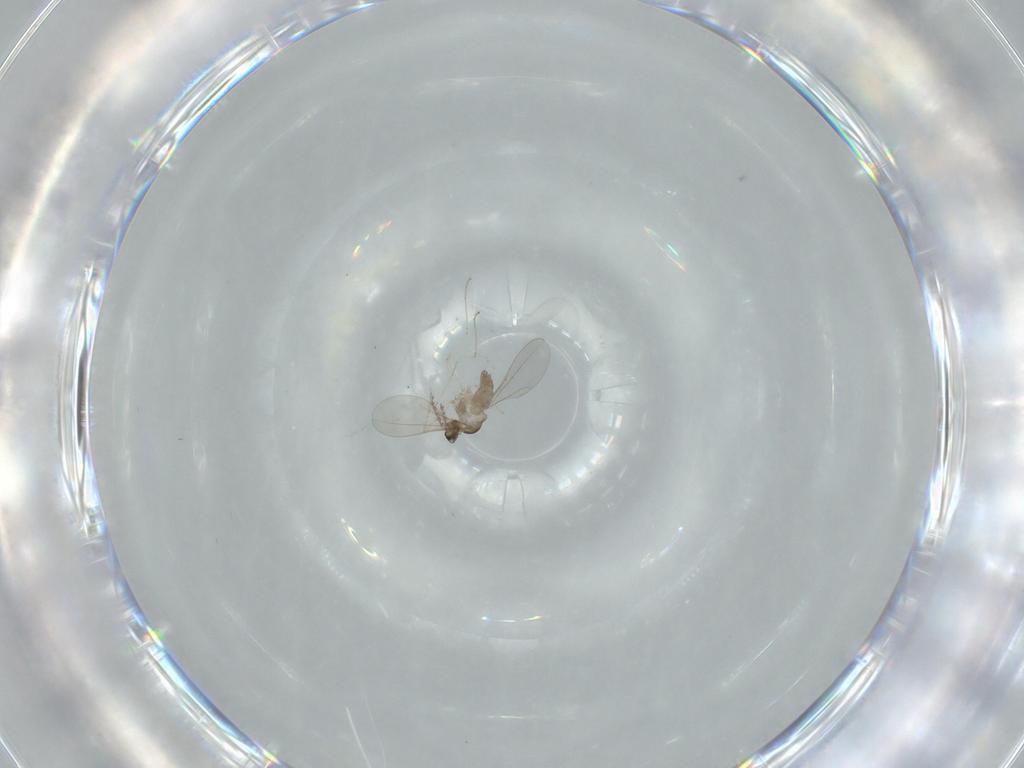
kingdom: Animalia
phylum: Arthropoda
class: Insecta
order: Diptera
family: Cecidomyiidae
